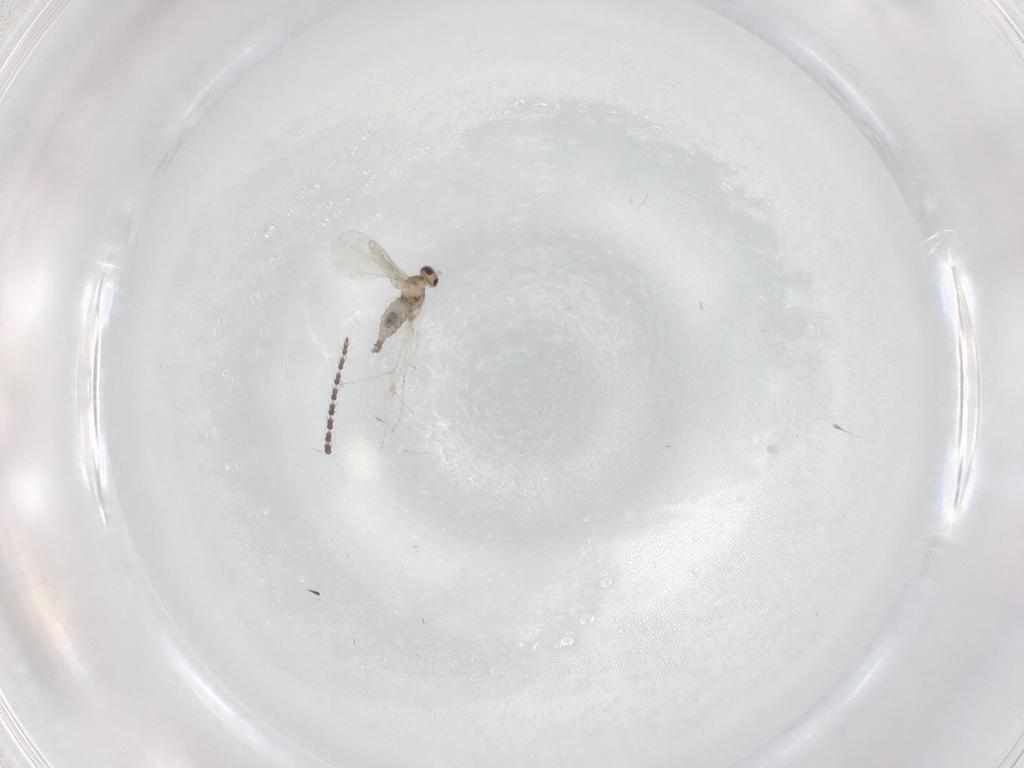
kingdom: Animalia
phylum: Arthropoda
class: Insecta
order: Diptera
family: Cecidomyiidae
